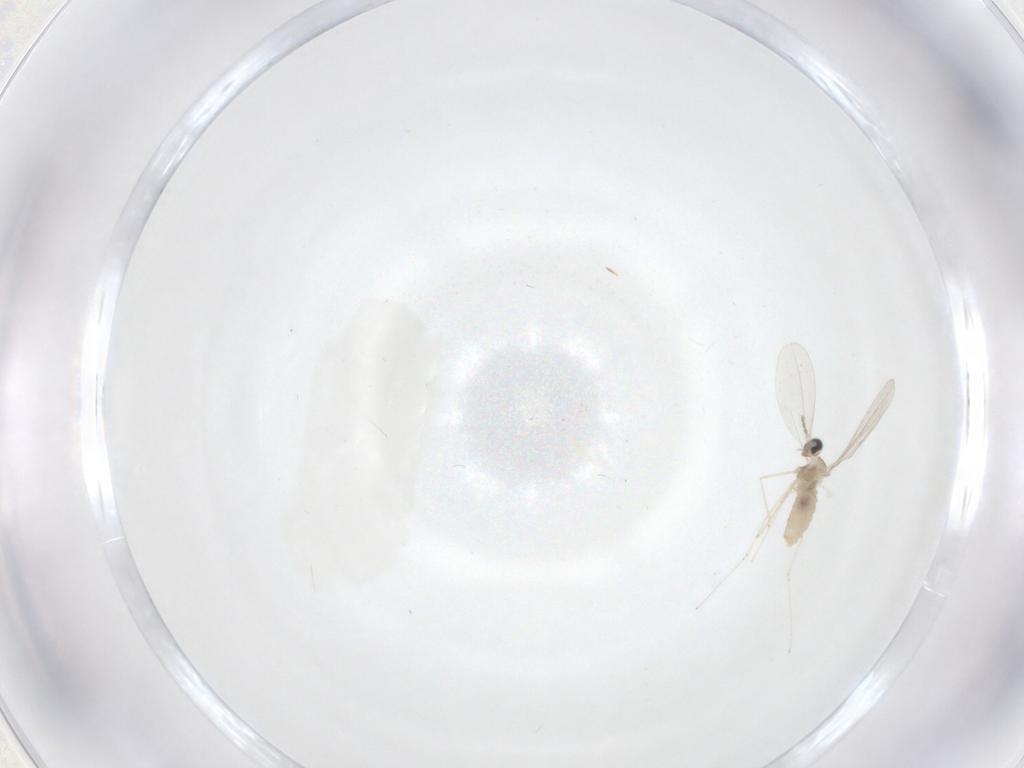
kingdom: Animalia
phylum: Arthropoda
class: Insecta
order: Diptera
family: Cecidomyiidae
